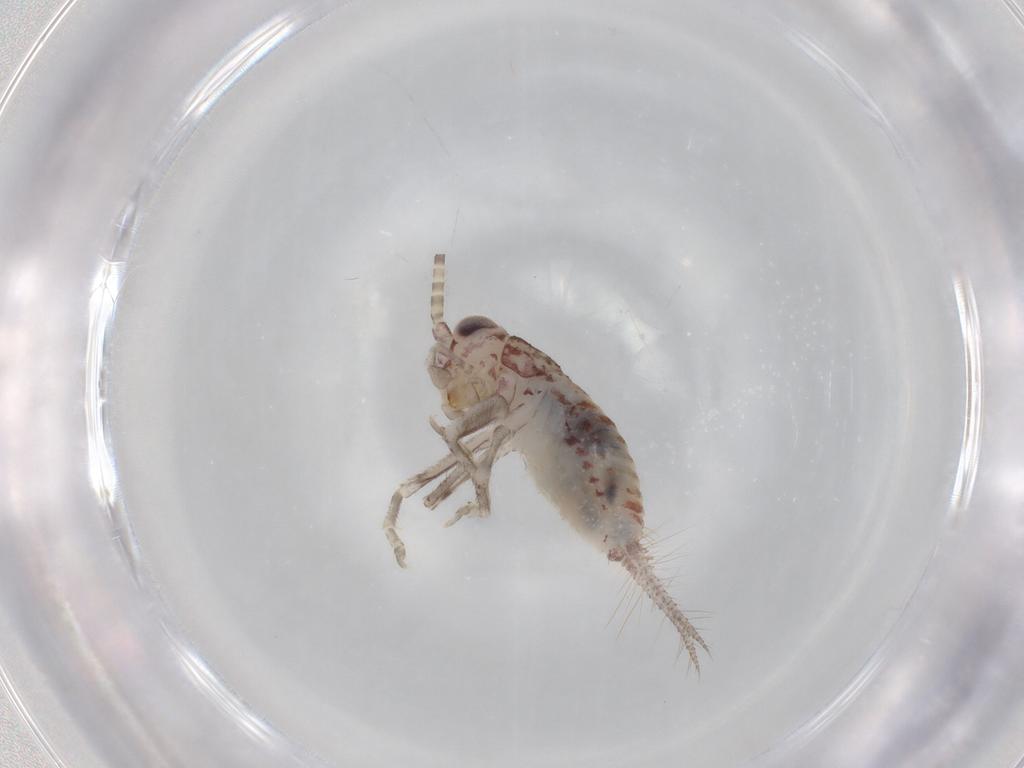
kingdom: Animalia
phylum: Arthropoda
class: Insecta
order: Orthoptera
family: Trigonidiidae
